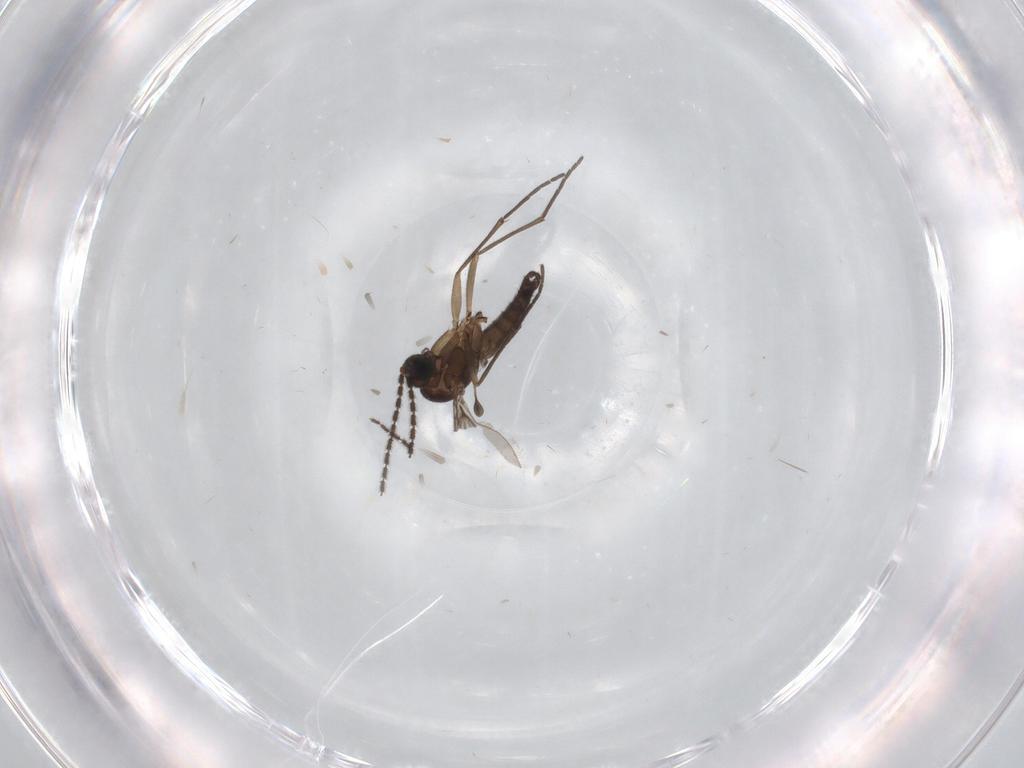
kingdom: Animalia
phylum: Arthropoda
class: Insecta
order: Diptera
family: Sciaridae
